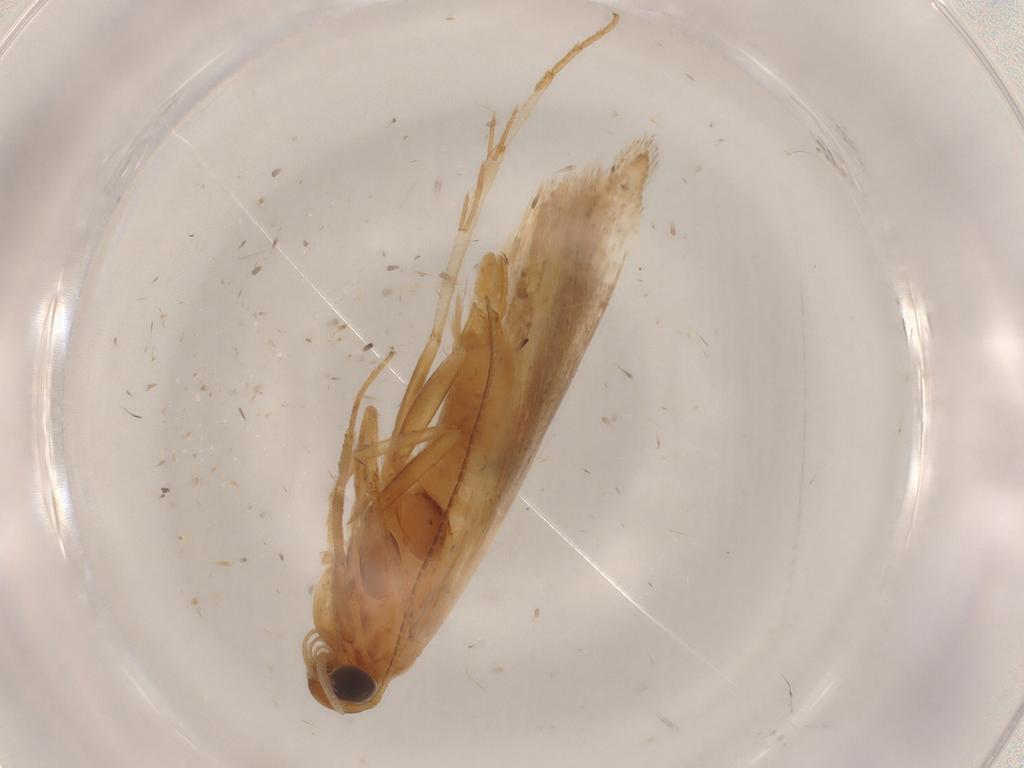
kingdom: Animalia
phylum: Arthropoda
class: Insecta
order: Lepidoptera
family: Gelechiidae
